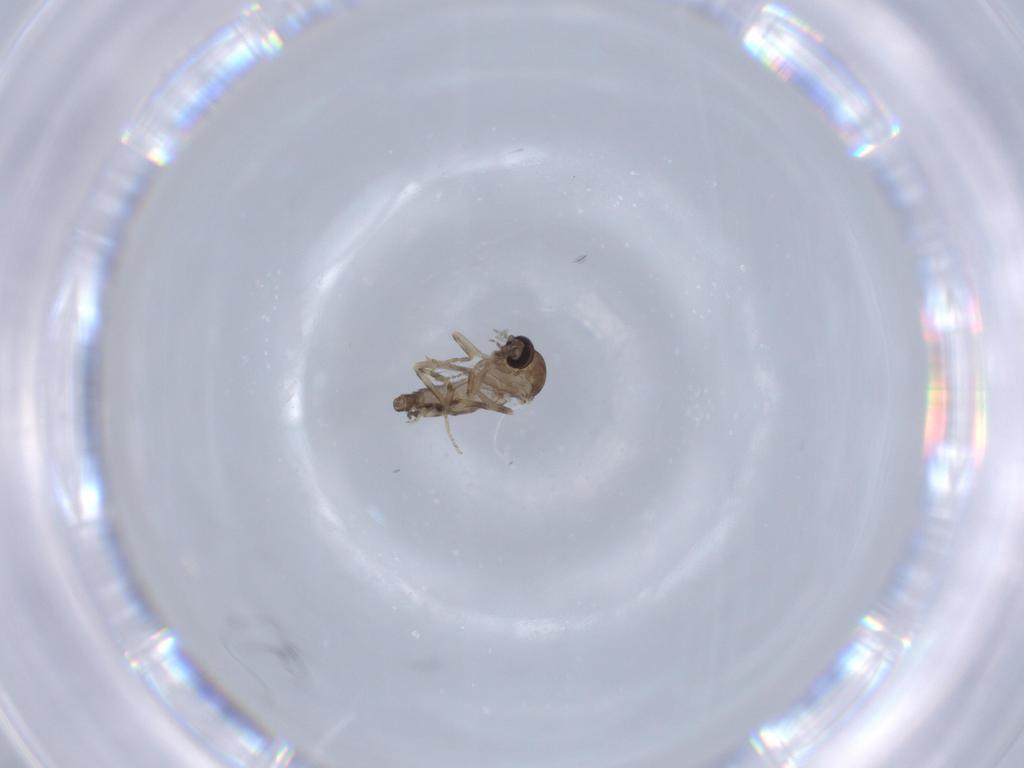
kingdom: Animalia
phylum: Arthropoda
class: Insecta
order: Diptera
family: Ceratopogonidae
